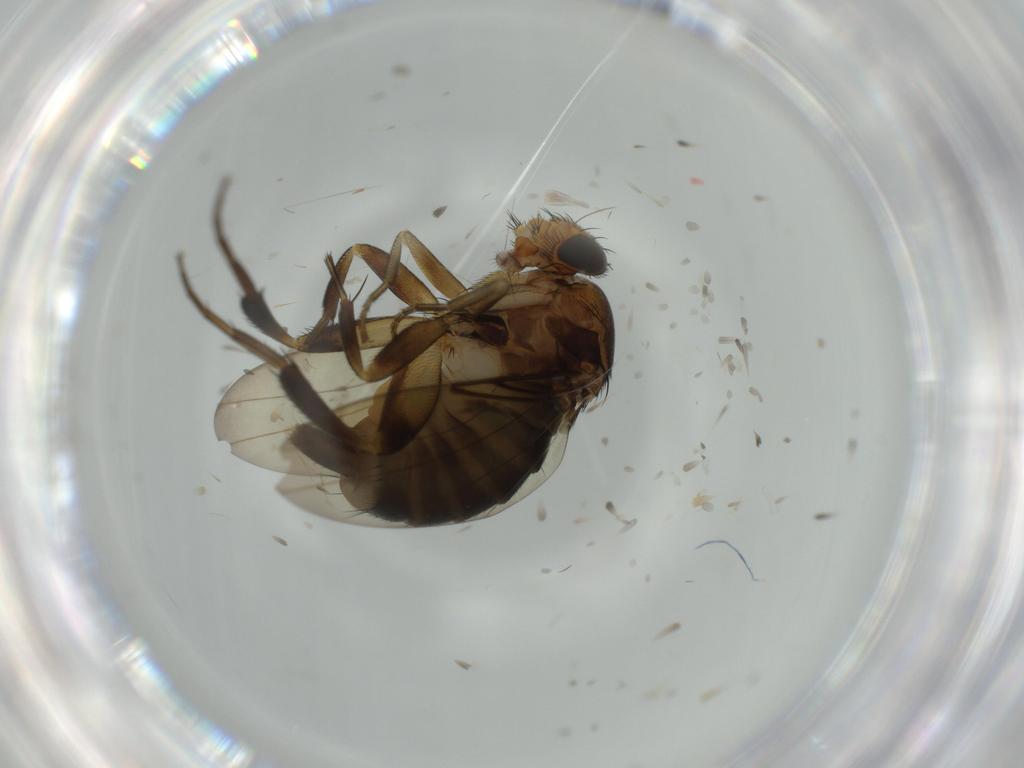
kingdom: Animalia
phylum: Arthropoda
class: Insecta
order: Diptera
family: Phoridae
